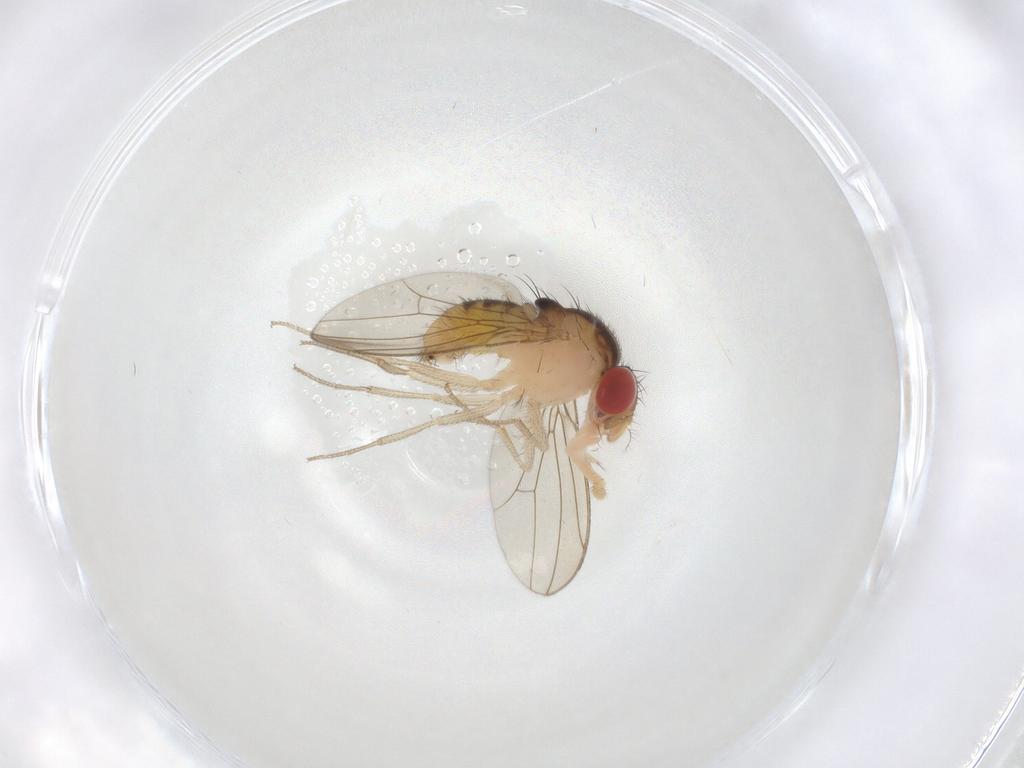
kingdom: Animalia
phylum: Arthropoda
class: Insecta
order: Diptera
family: Drosophilidae
